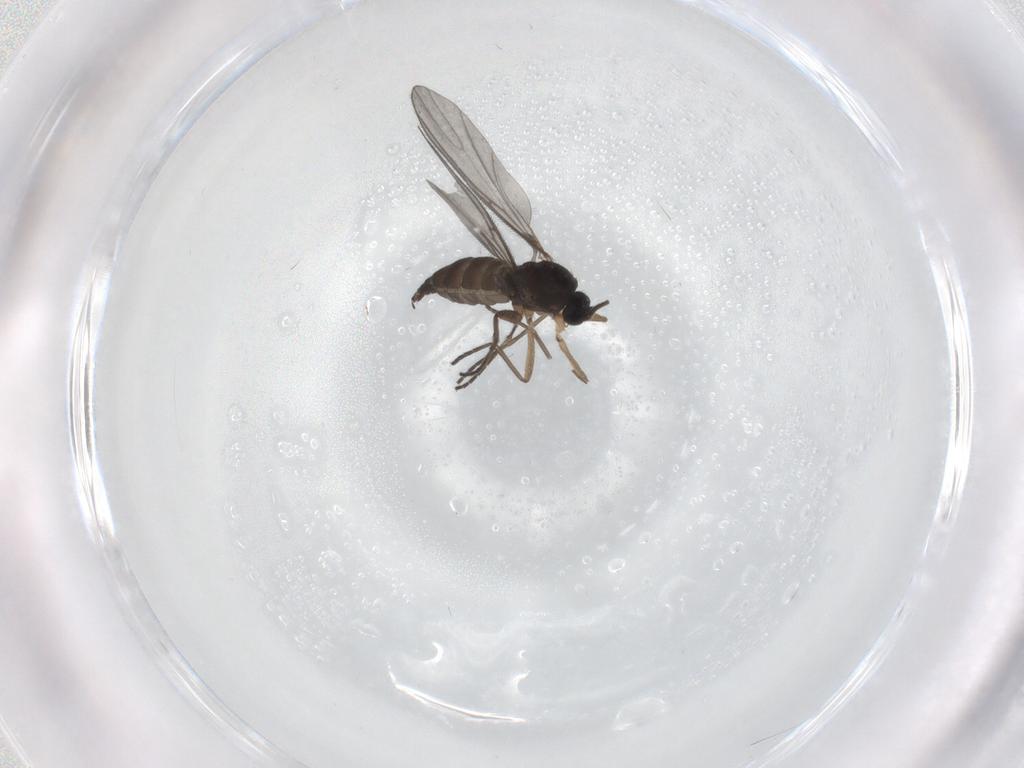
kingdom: Animalia
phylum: Arthropoda
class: Insecta
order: Diptera
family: Sciaridae
